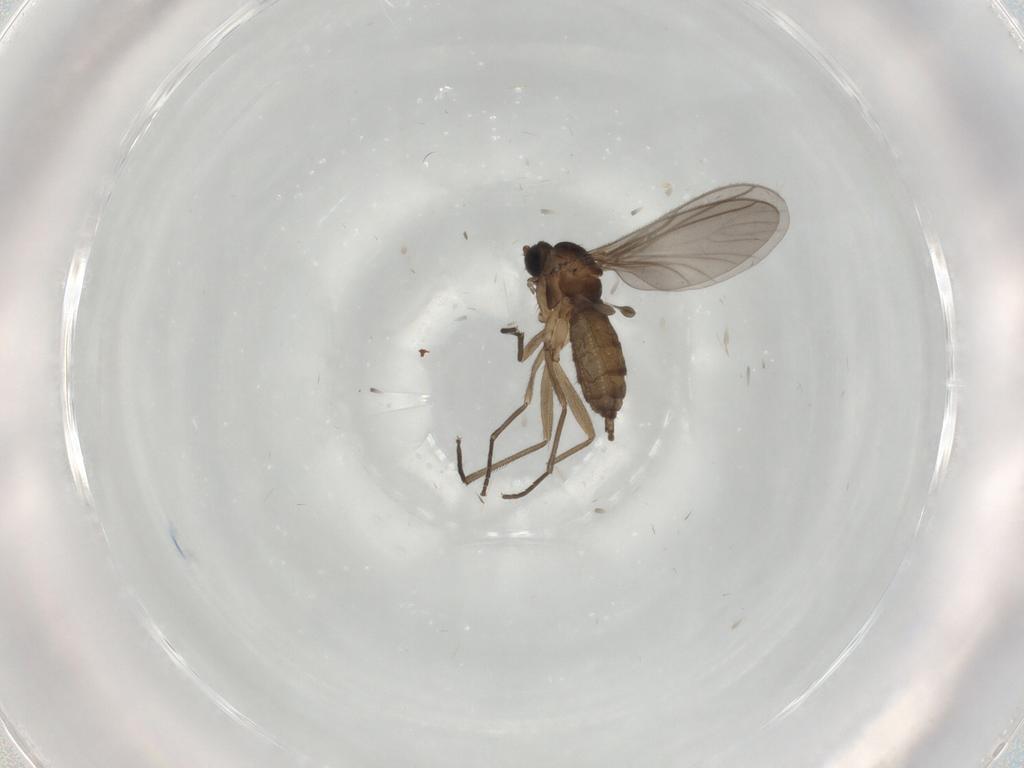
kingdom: Animalia
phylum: Arthropoda
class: Insecta
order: Diptera
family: Sciaridae
